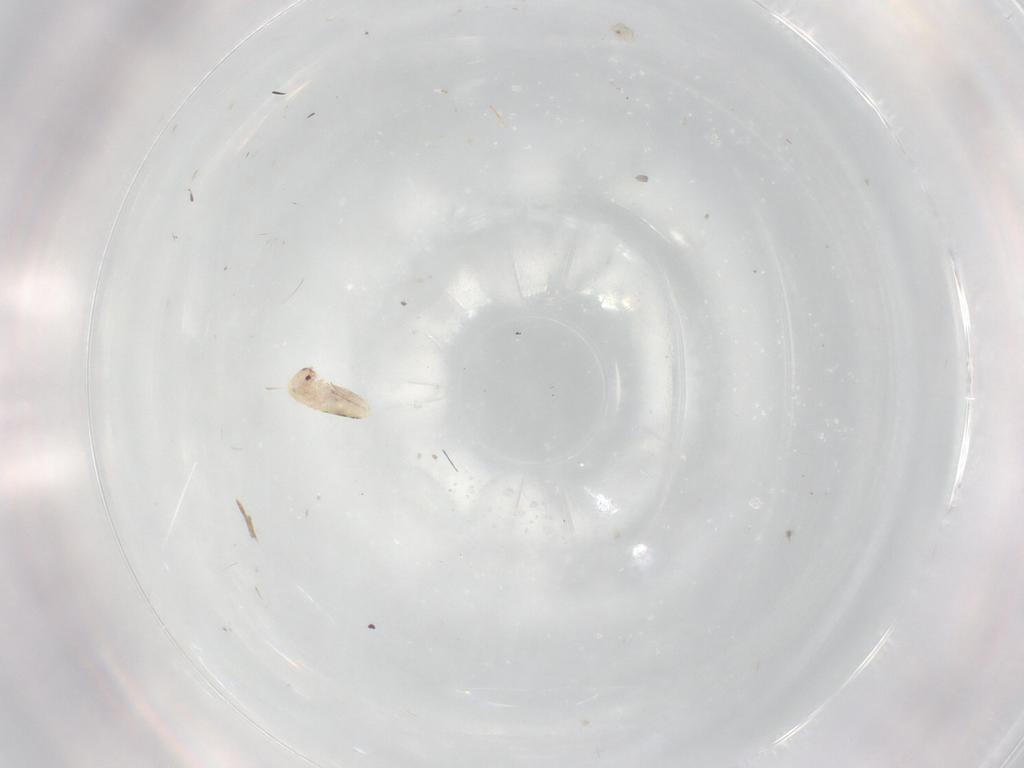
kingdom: Animalia
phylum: Arthropoda
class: Collembola
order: Entomobryomorpha
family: Entomobryidae
